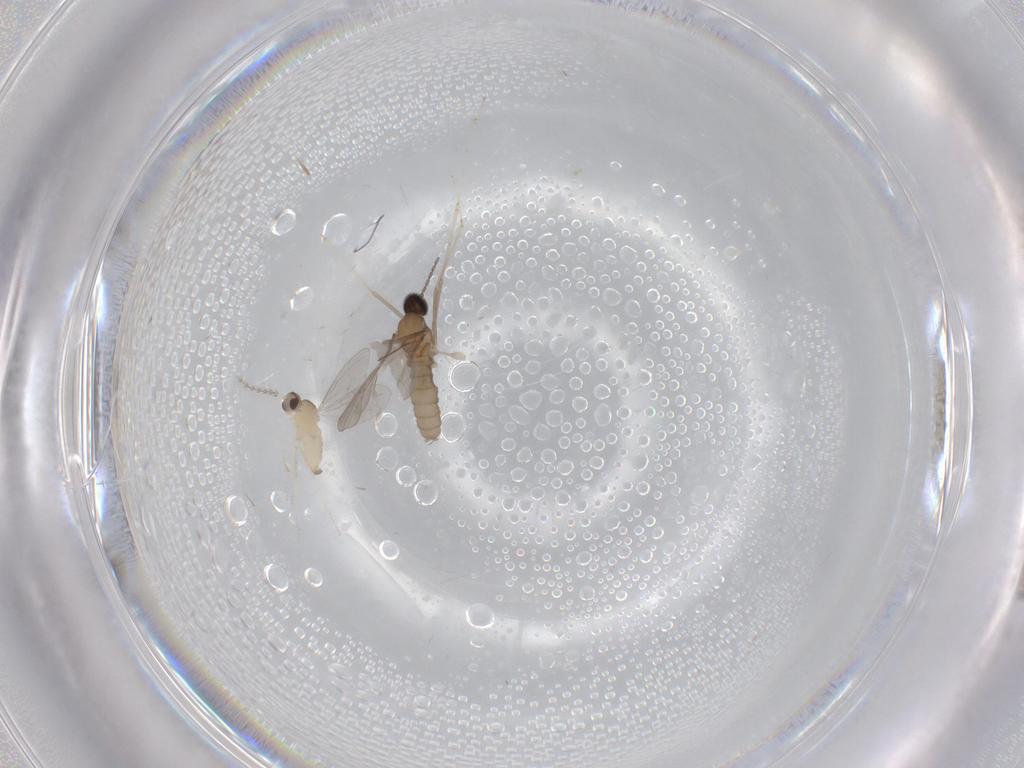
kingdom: Animalia
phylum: Arthropoda
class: Insecta
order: Diptera
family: Cecidomyiidae
